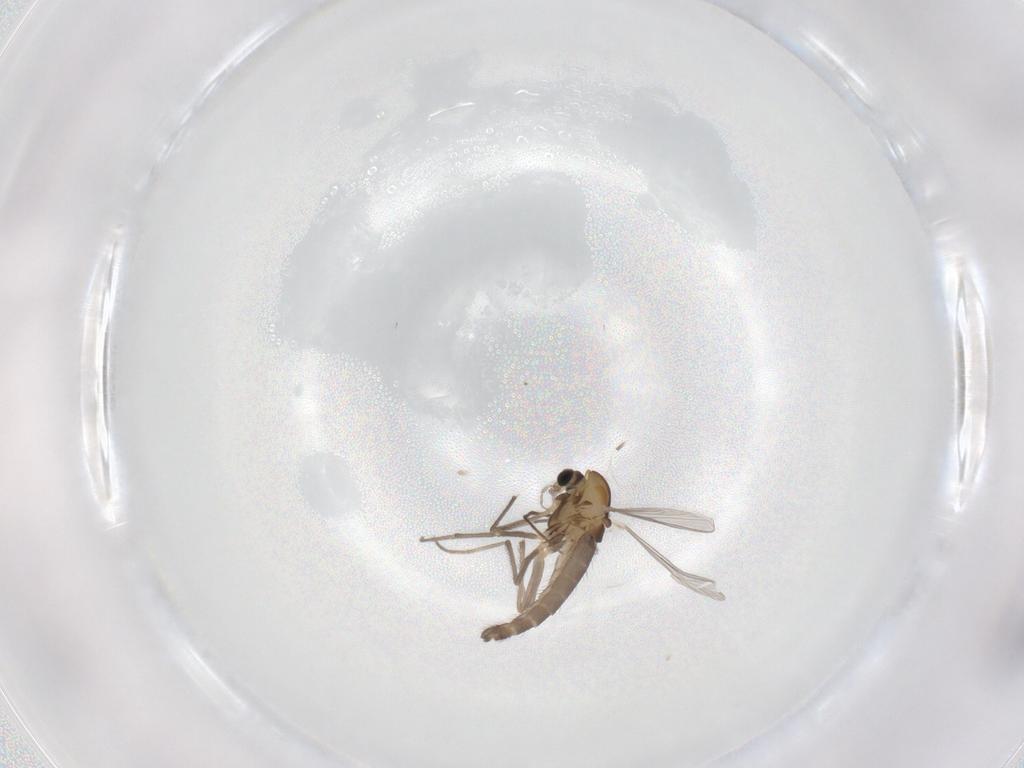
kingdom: Animalia
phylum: Arthropoda
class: Insecta
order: Diptera
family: Chironomidae
